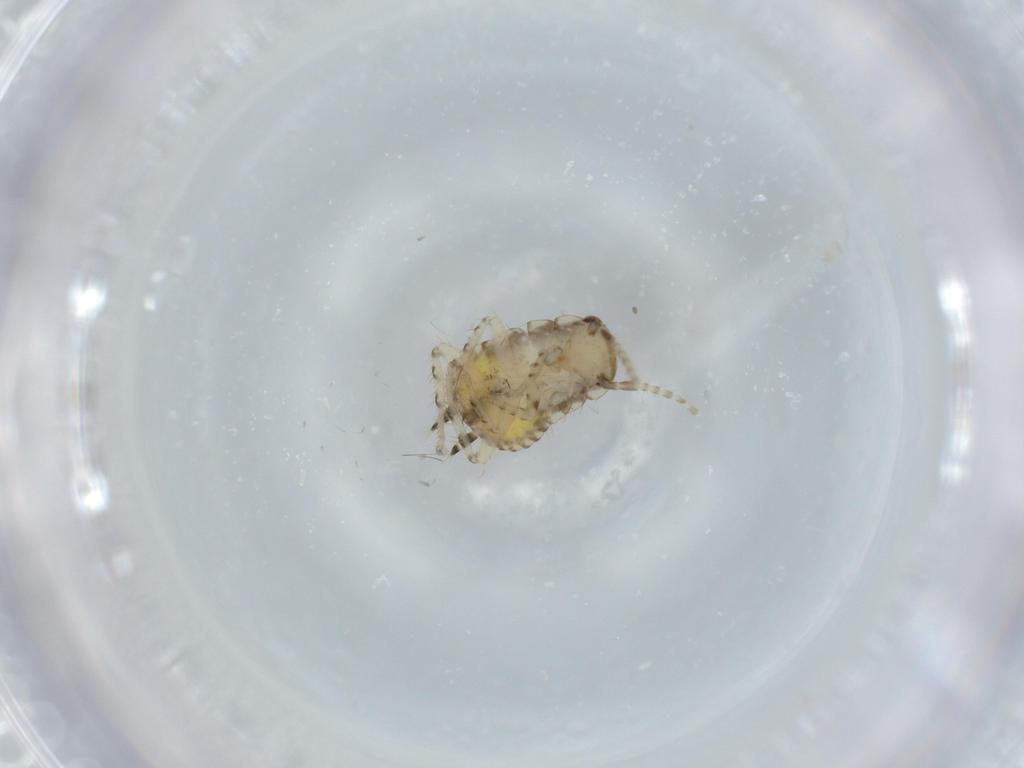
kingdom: Animalia
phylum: Arthropoda
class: Insecta
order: Blattodea
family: Ectobiidae
